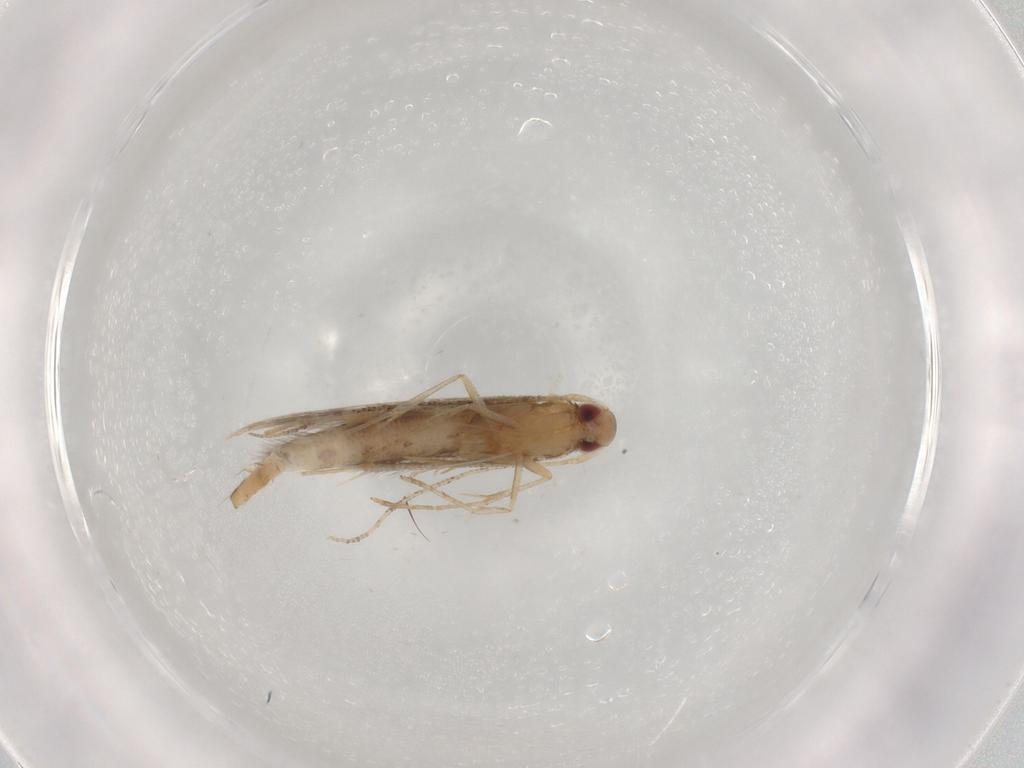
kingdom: Animalia
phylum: Arthropoda
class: Insecta
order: Lepidoptera
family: Cosmopterigidae
